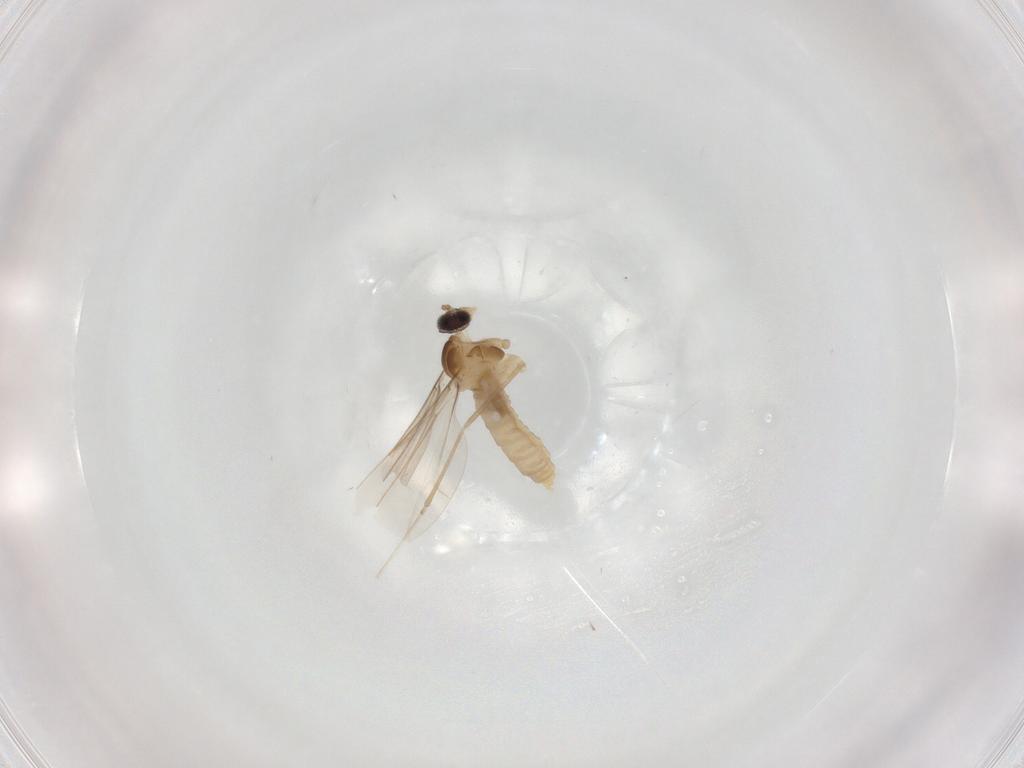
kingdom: Animalia
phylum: Arthropoda
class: Insecta
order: Diptera
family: Cecidomyiidae
